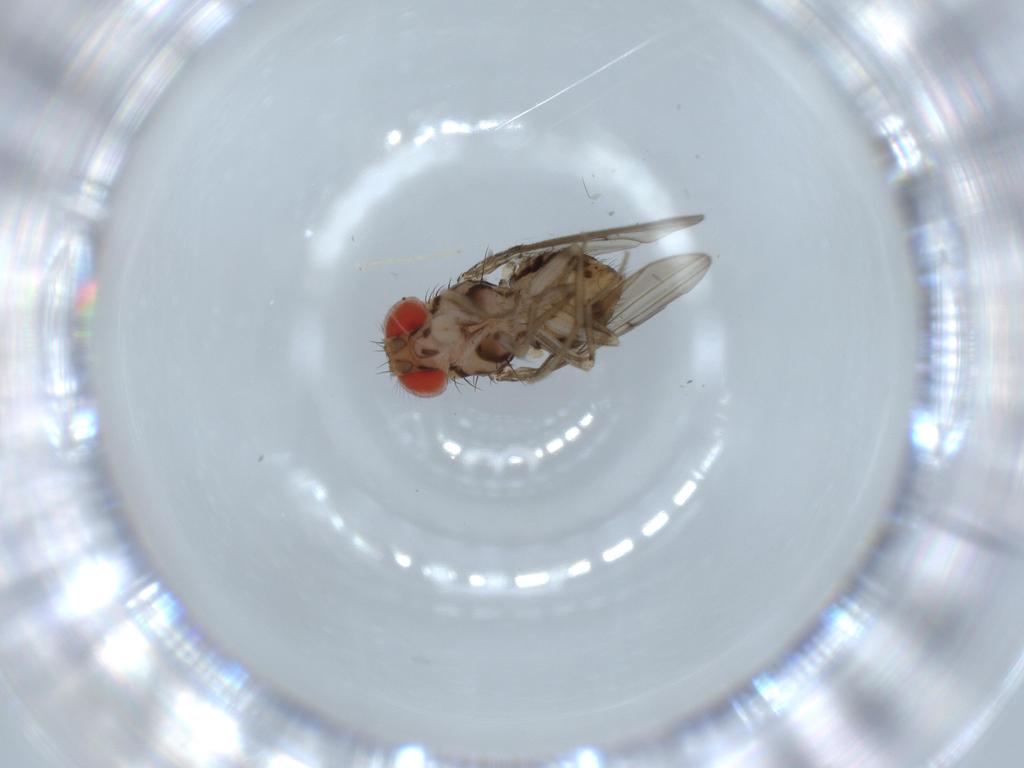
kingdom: Animalia
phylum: Arthropoda
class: Insecta
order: Diptera
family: Drosophilidae
